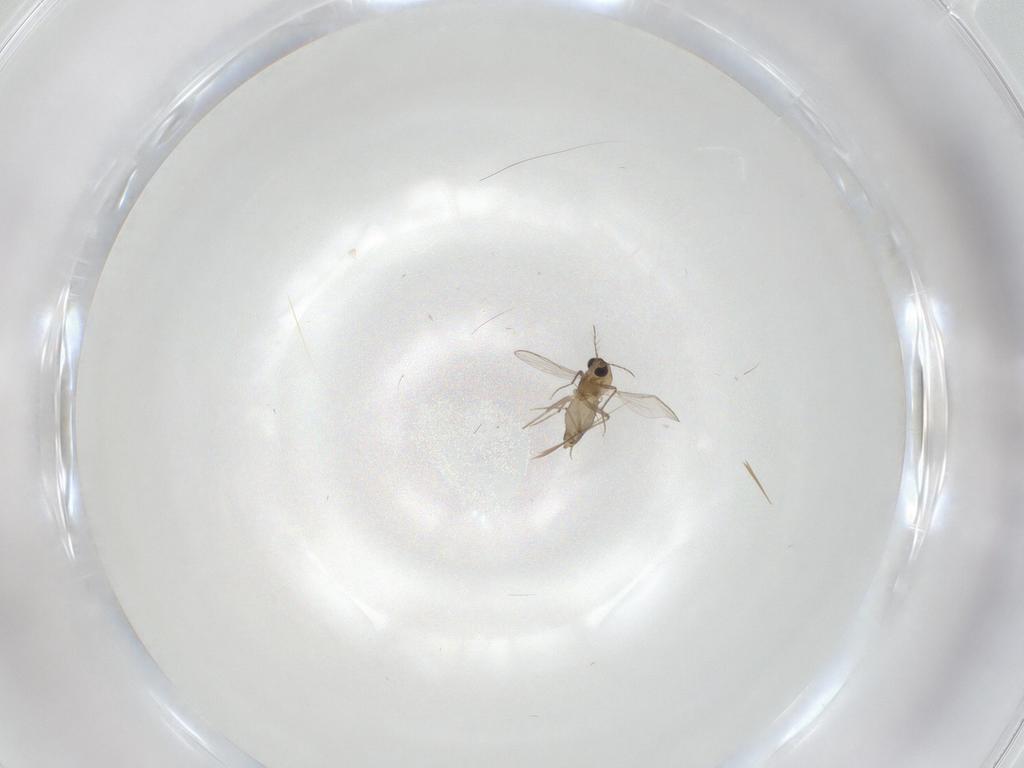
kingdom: Animalia
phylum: Arthropoda
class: Insecta
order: Diptera
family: Chironomidae
